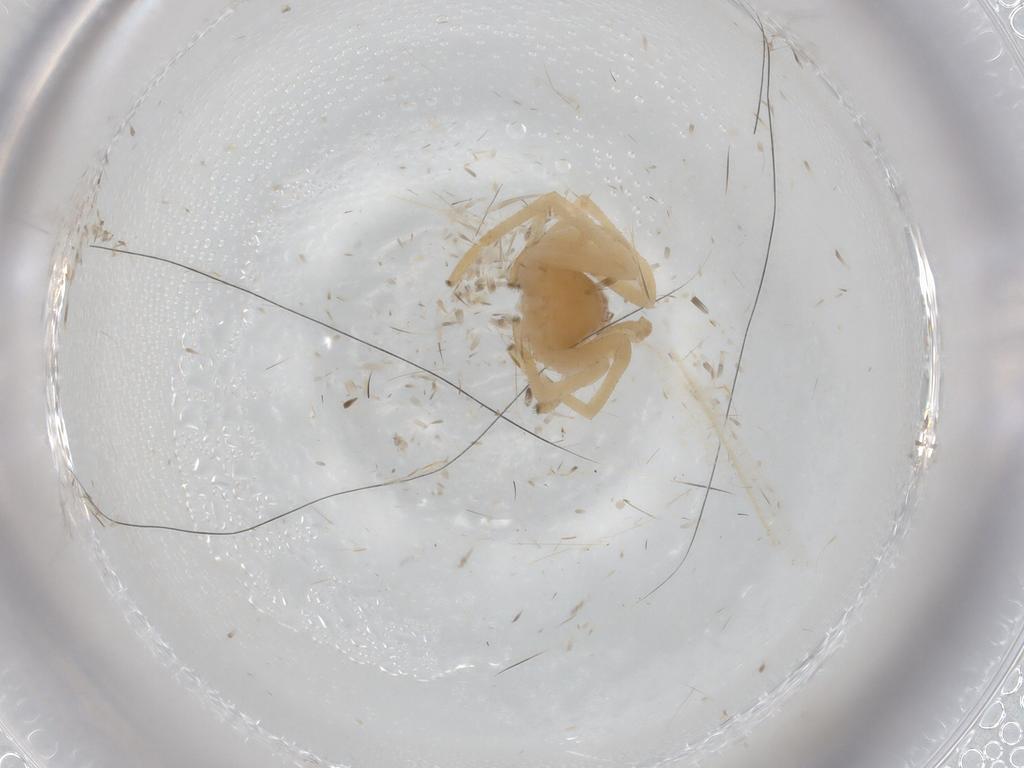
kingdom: Animalia
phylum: Arthropoda
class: Arachnida
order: Araneae
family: Cheiracanthiidae
